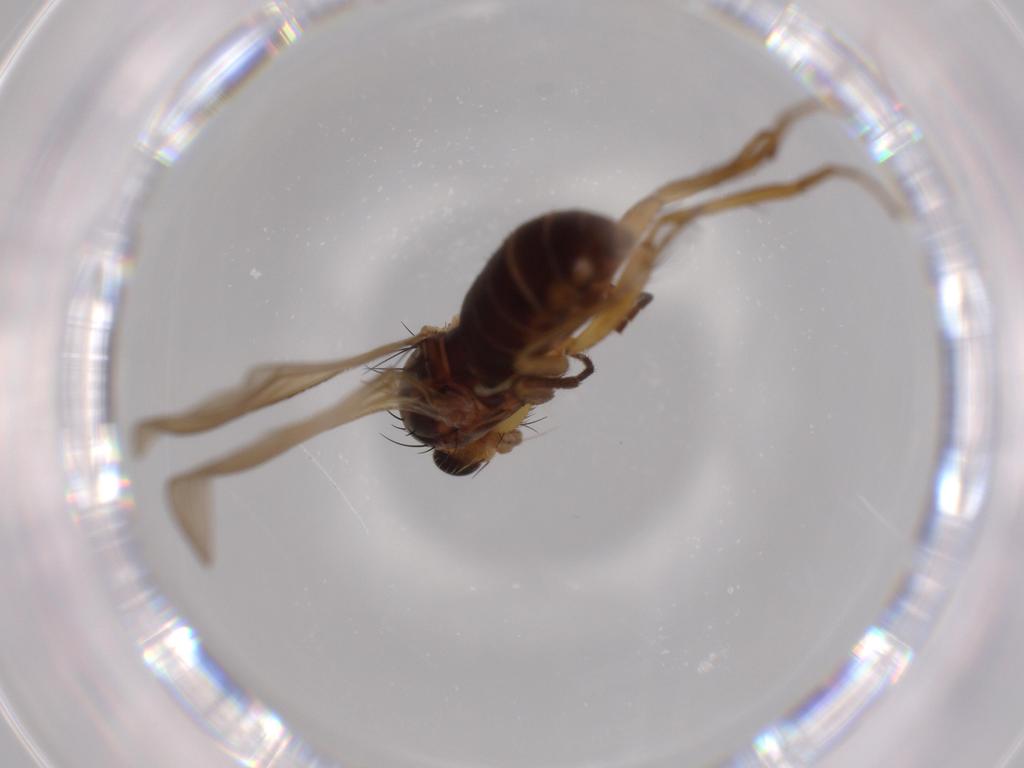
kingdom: Animalia
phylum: Arthropoda
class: Insecta
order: Diptera
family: Lonchopteridae
